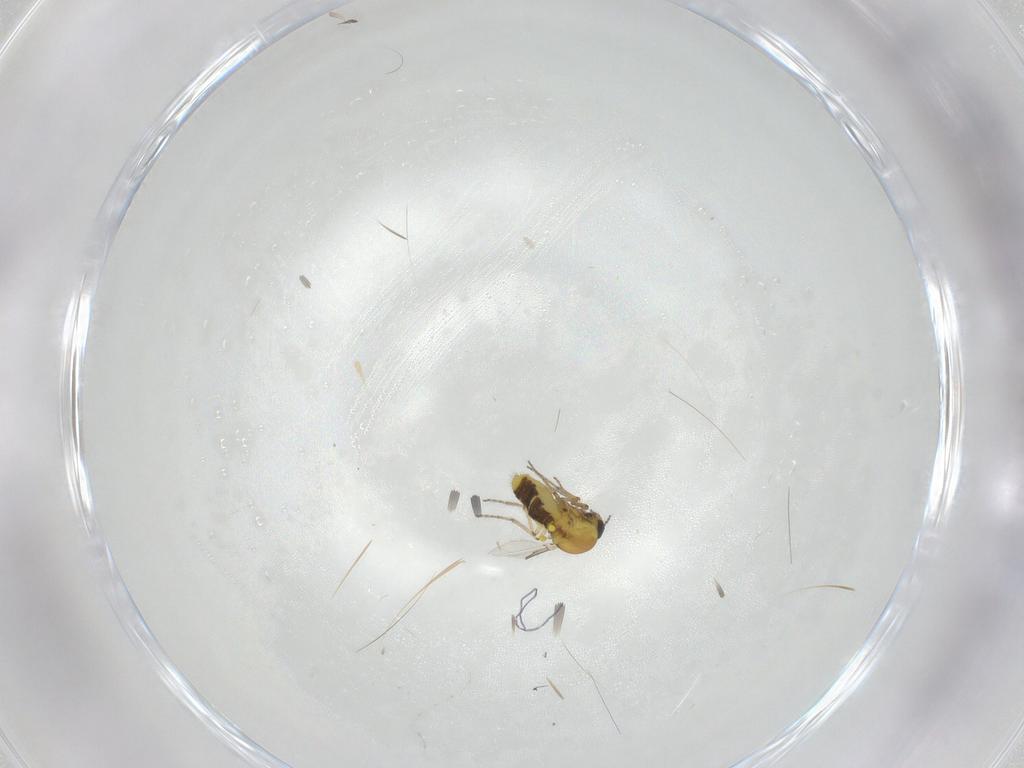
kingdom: Animalia
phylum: Arthropoda
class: Insecta
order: Diptera
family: Ceratopogonidae
